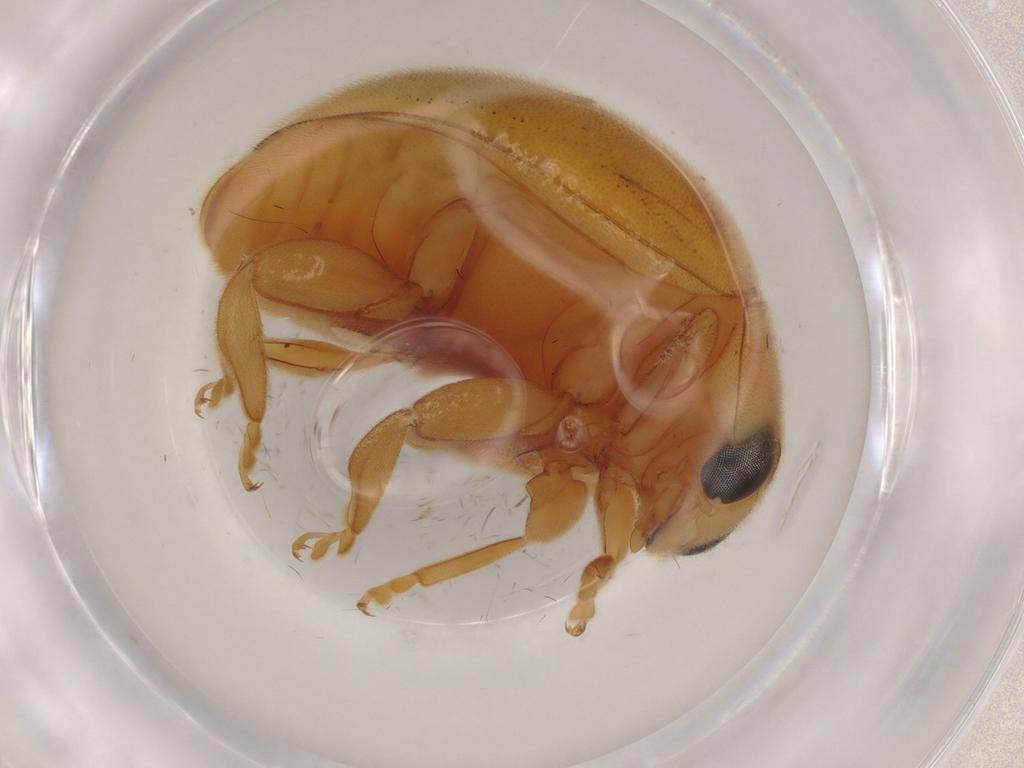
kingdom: Animalia
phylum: Arthropoda
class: Insecta
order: Coleoptera
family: Coccinellidae
